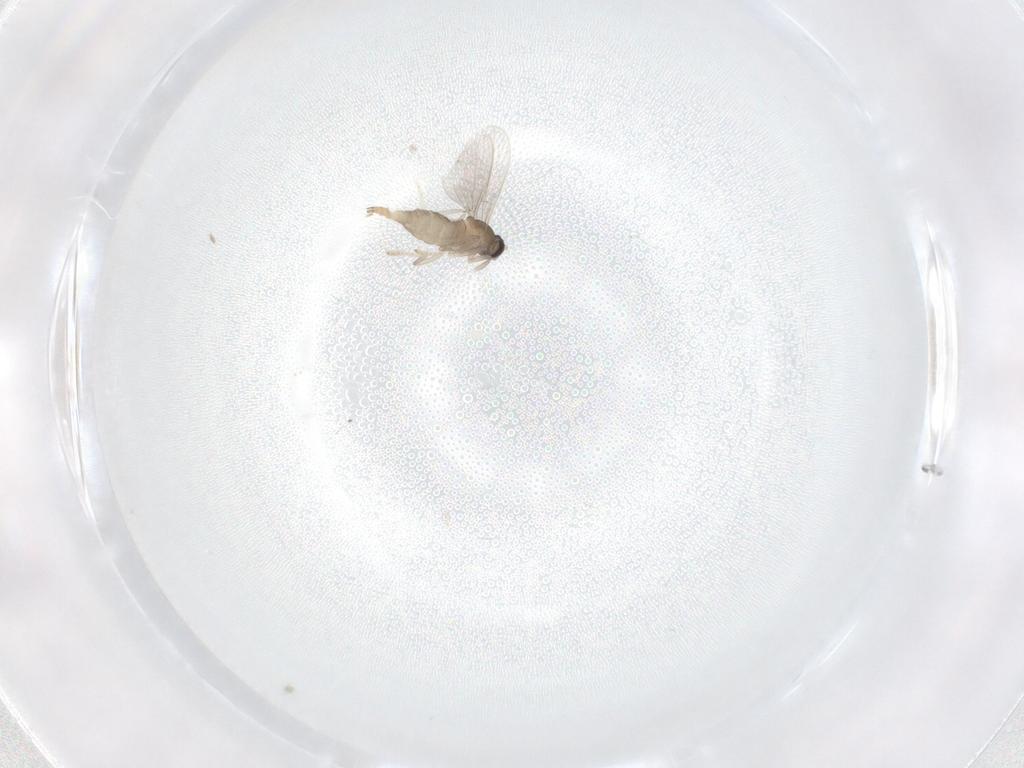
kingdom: Animalia
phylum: Arthropoda
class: Insecta
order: Diptera
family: Cecidomyiidae
